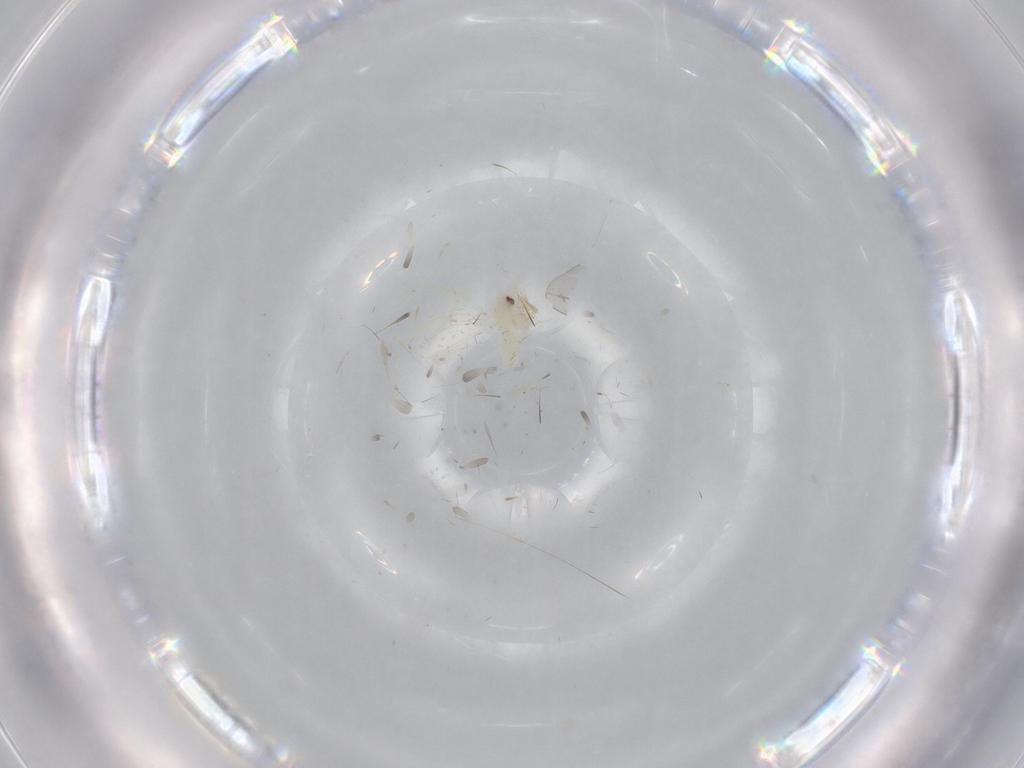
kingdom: Animalia
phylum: Arthropoda
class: Insecta
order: Hemiptera
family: Aleyrodidae
